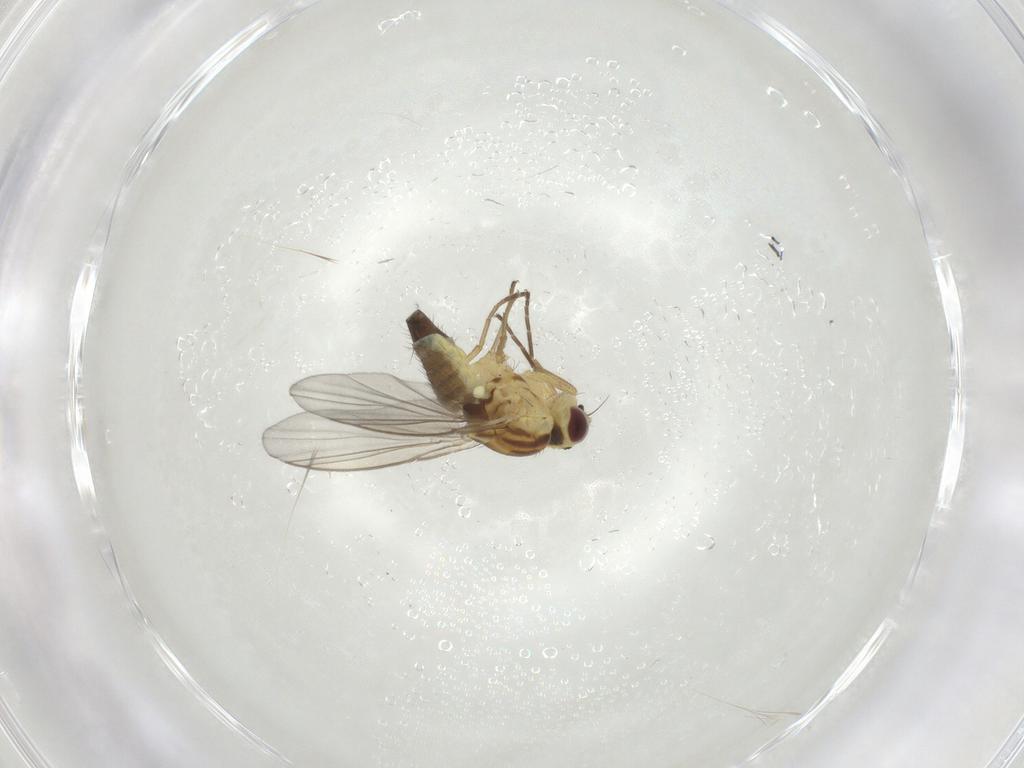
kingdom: Animalia
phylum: Arthropoda
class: Insecta
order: Diptera
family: Agromyzidae
